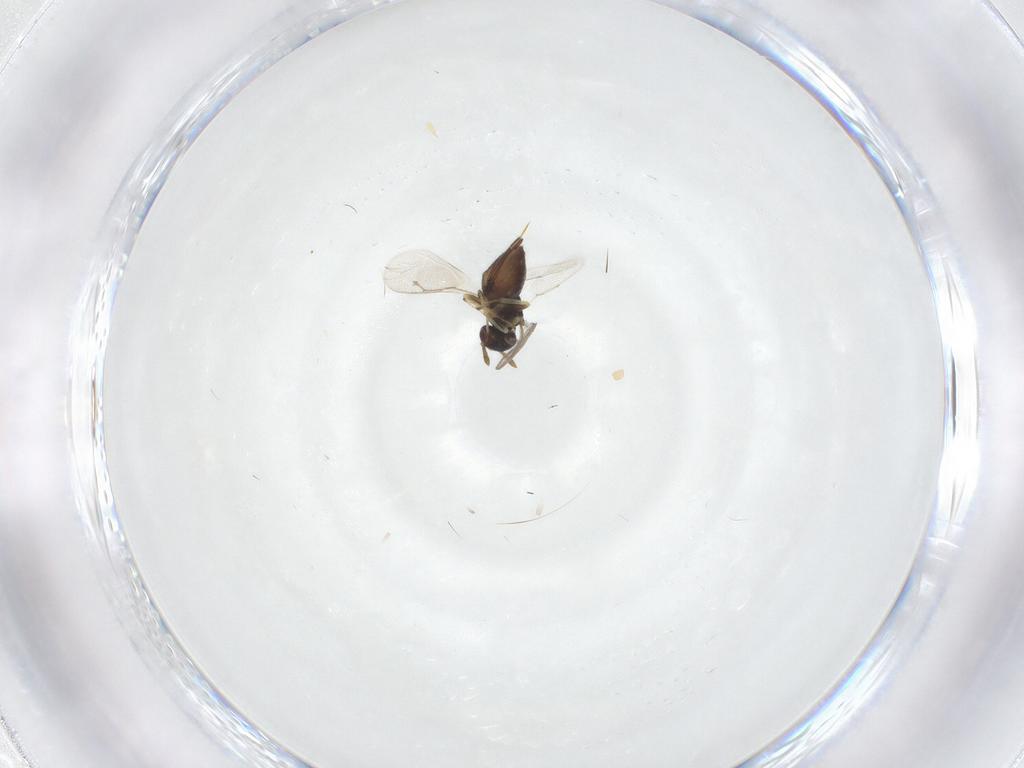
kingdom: Animalia
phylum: Arthropoda
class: Insecta
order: Hymenoptera
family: Pteromalidae
